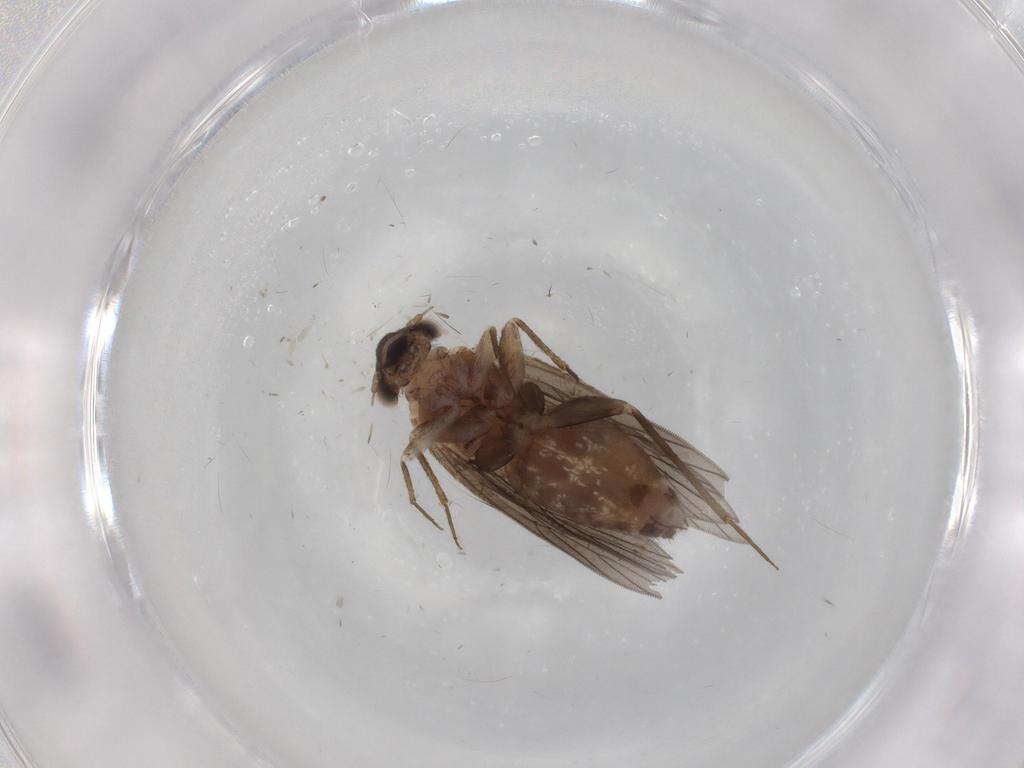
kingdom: Animalia
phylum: Arthropoda
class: Insecta
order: Psocodea
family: Lepidopsocidae
